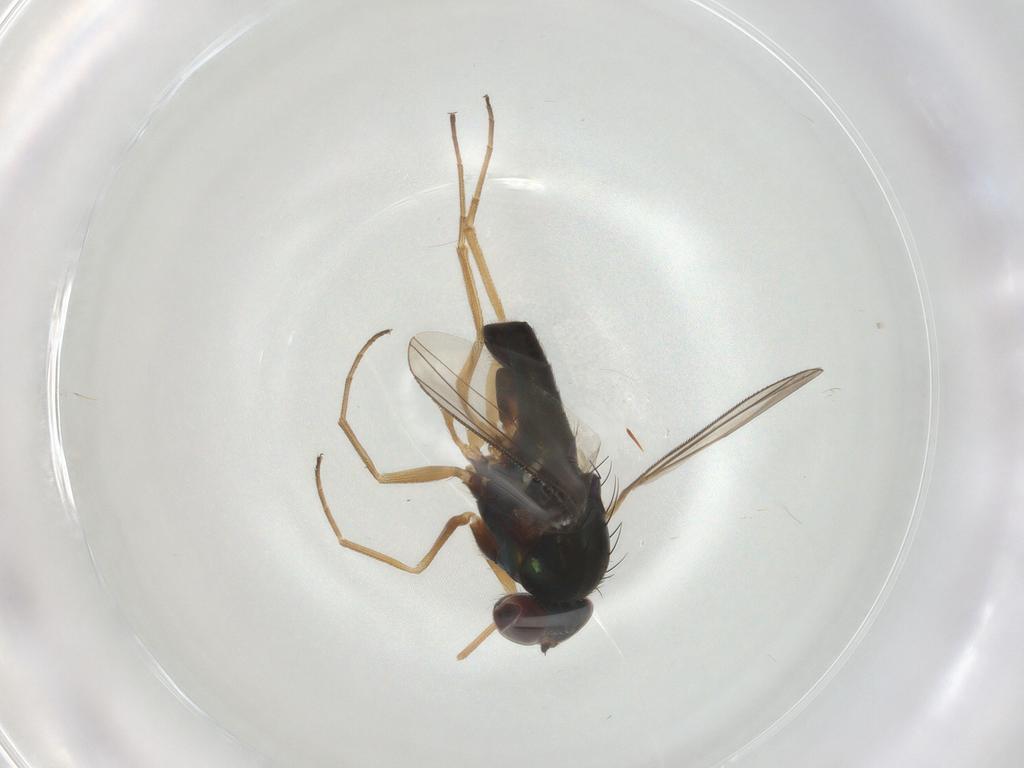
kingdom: Animalia
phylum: Arthropoda
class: Insecta
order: Diptera
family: Dolichopodidae
